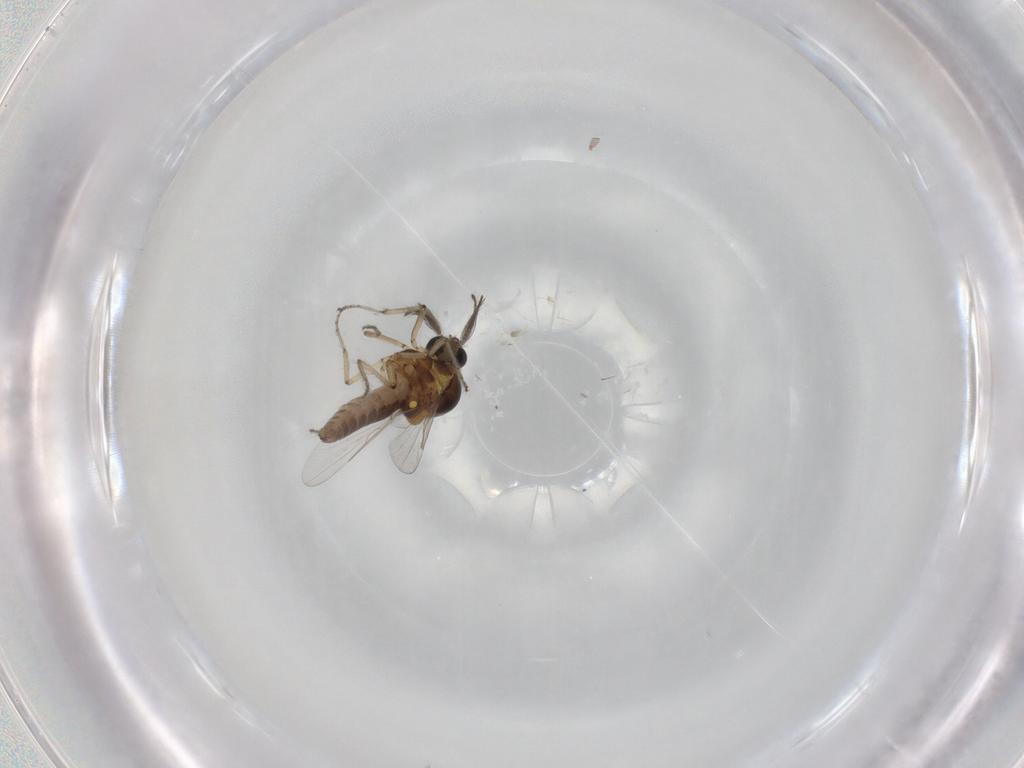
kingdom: Animalia
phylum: Arthropoda
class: Insecta
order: Diptera
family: Ceratopogonidae
